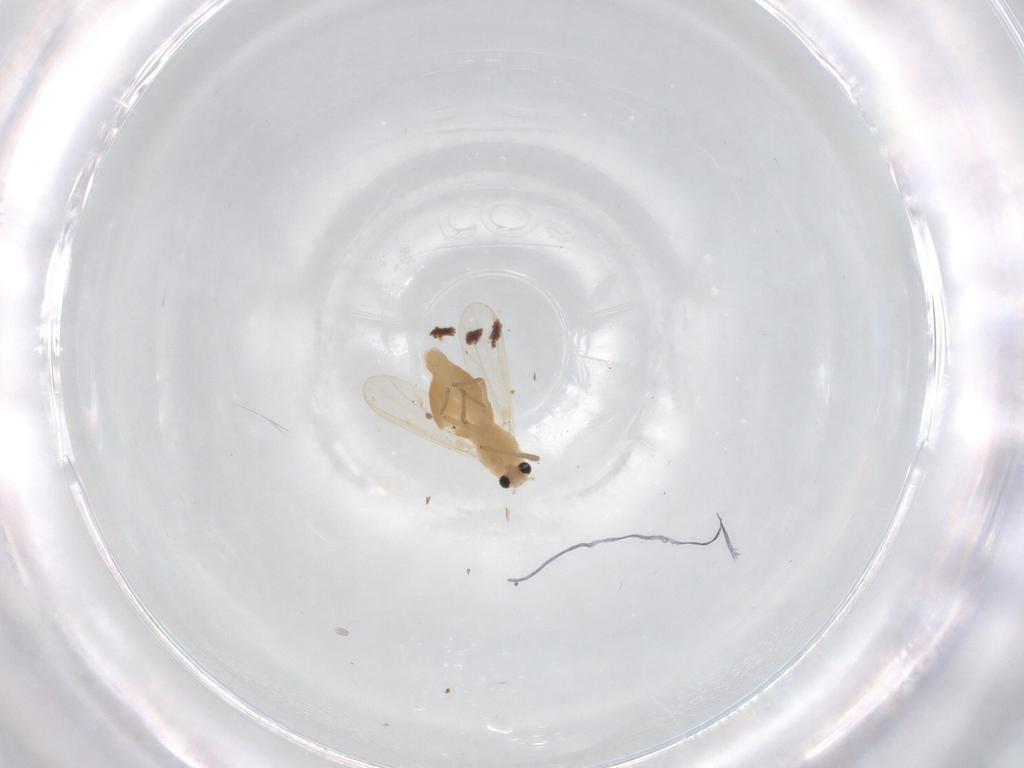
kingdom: Animalia
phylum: Arthropoda
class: Insecta
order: Diptera
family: Chironomidae
